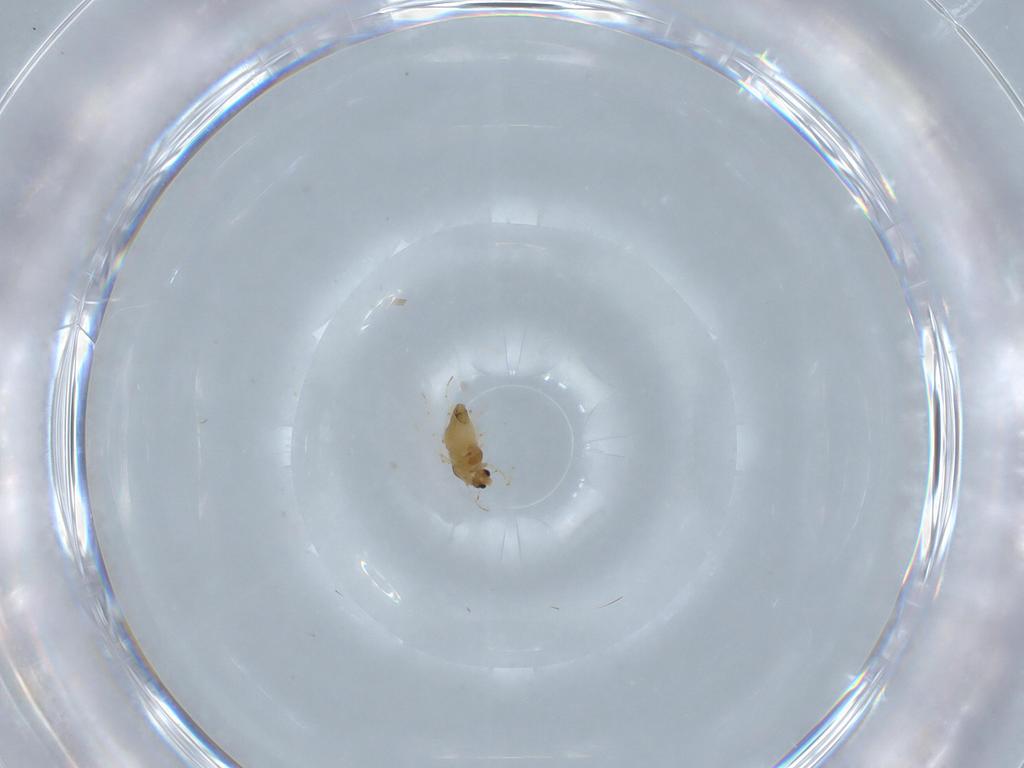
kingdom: Animalia
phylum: Arthropoda
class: Insecta
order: Diptera
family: Chironomidae
